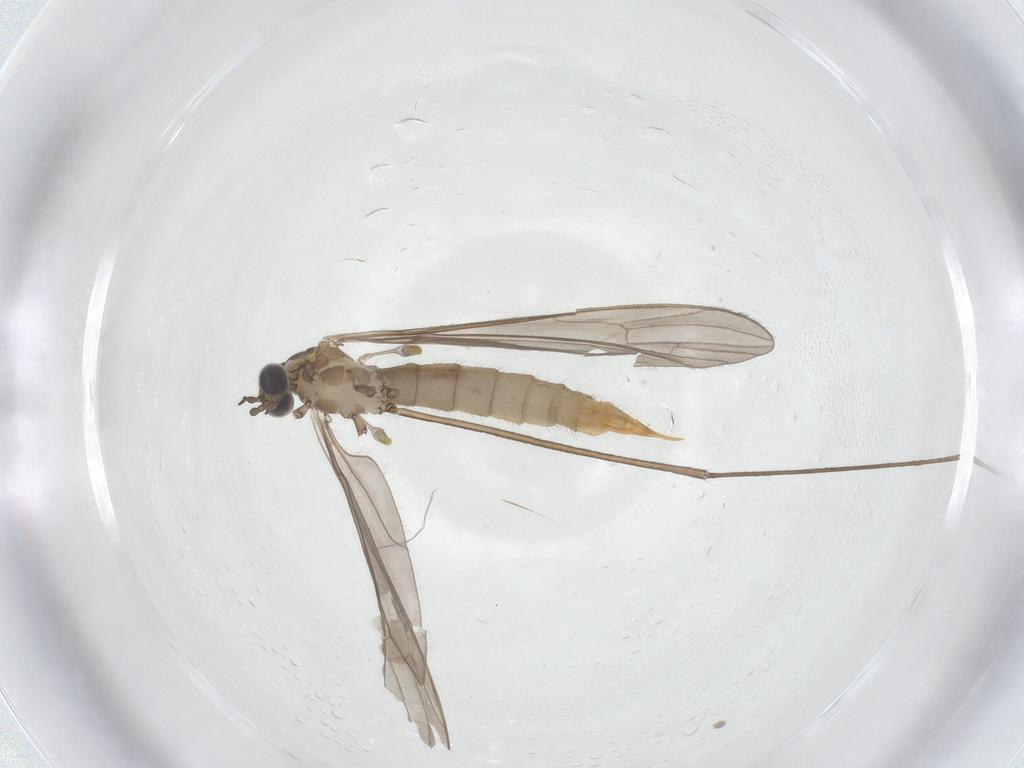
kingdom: Animalia
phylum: Arthropoda
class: Insecta
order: Diptera
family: Limoniidae
